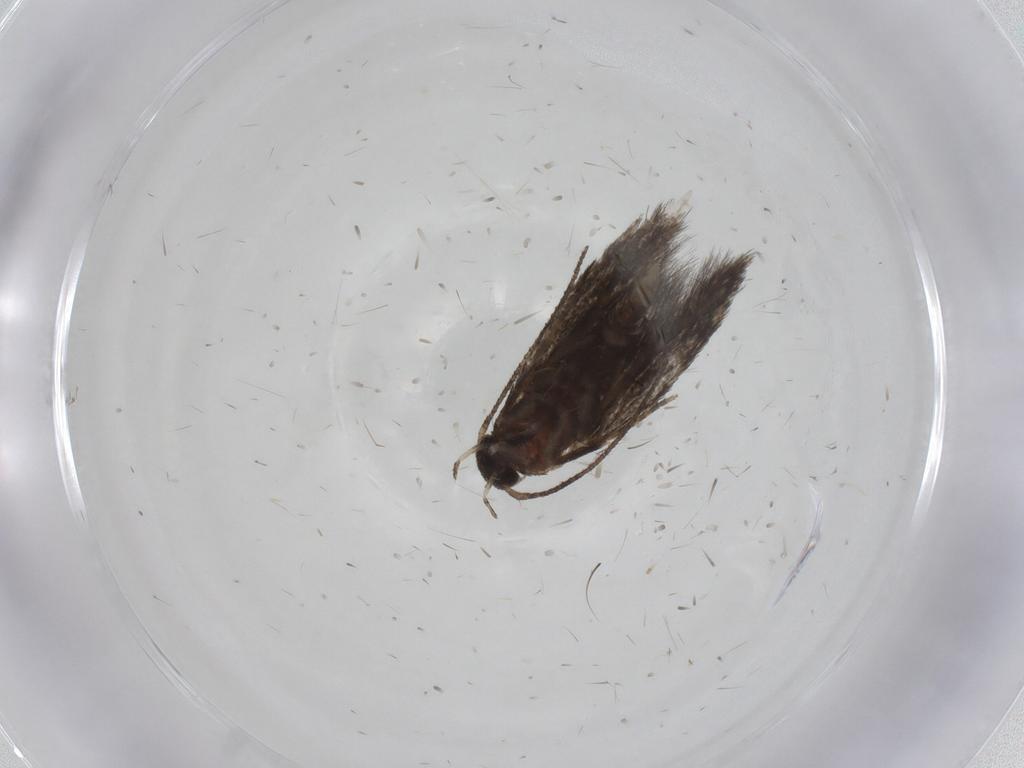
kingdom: Animalia
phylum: Arthropoda
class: Insecta
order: Lepidoptera
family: Elachistidae
